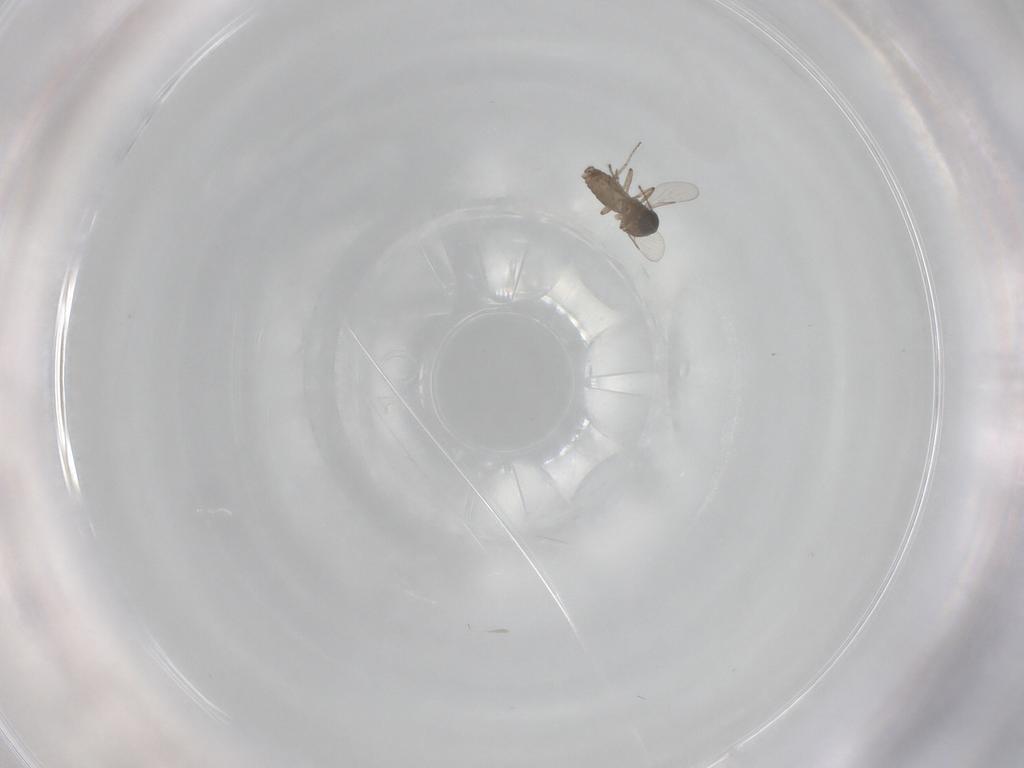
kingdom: Animalia
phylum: Arthropoda
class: Insecta
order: Diptera
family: Ceratopogonidae
